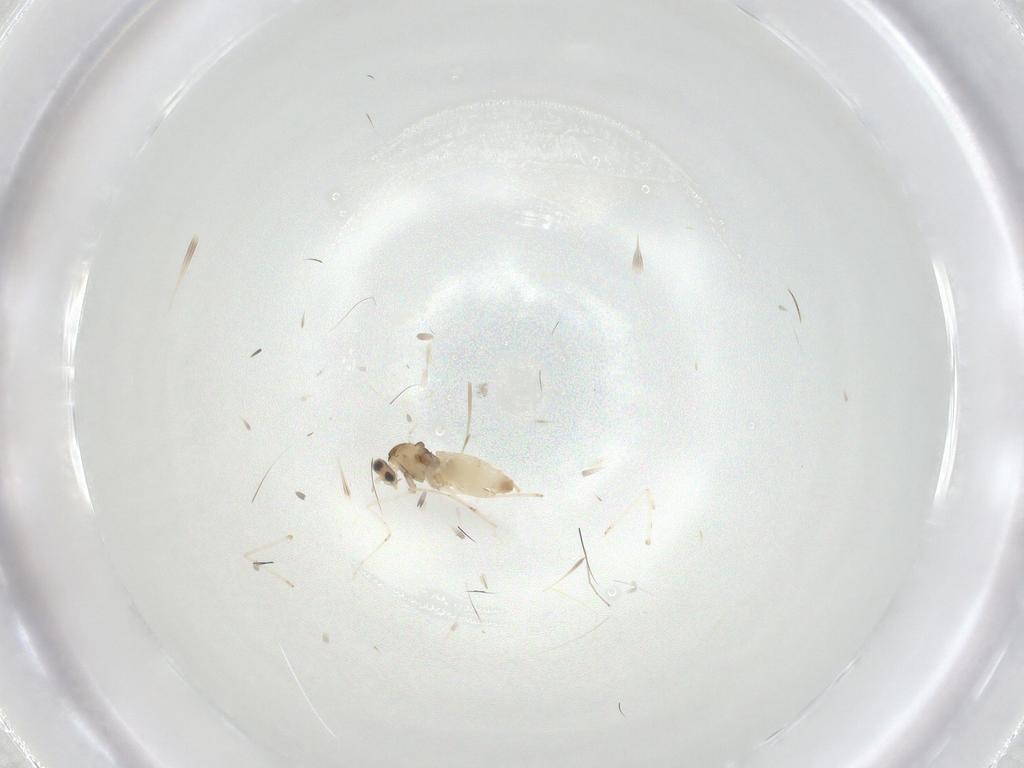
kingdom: Animalia
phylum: Arthropoda
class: Insecta
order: Diptera
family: Cecidomyiidae
